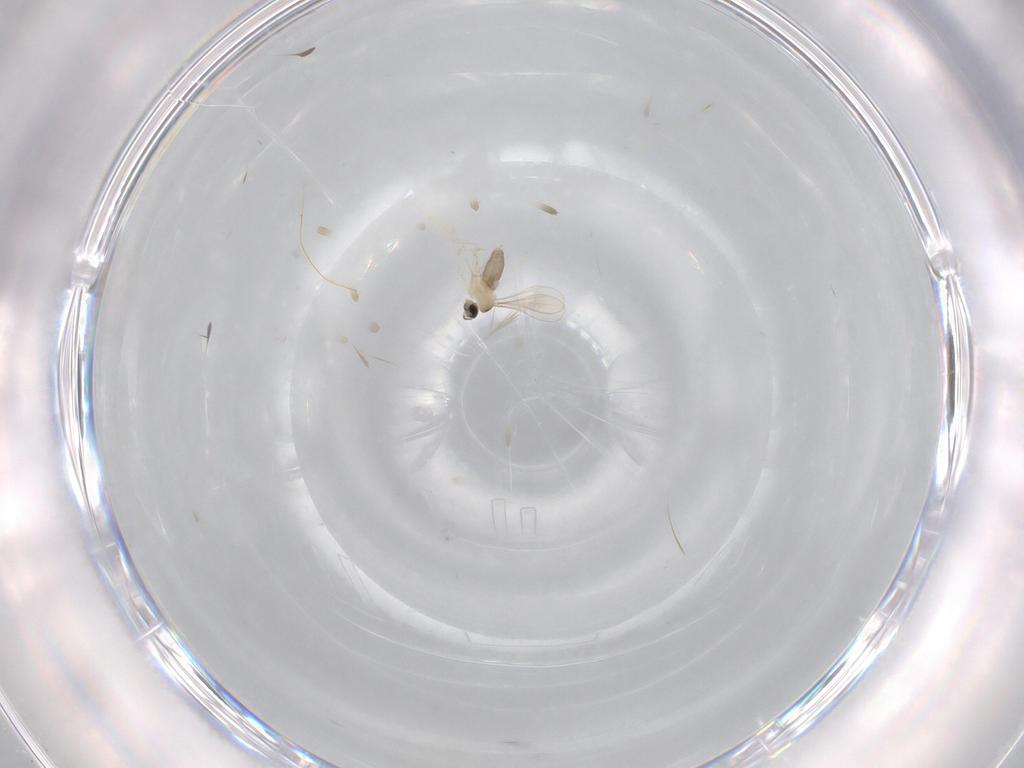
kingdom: Animalia
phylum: Arthropoda
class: Insecta
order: Diptera
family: Cecidomyiidae
